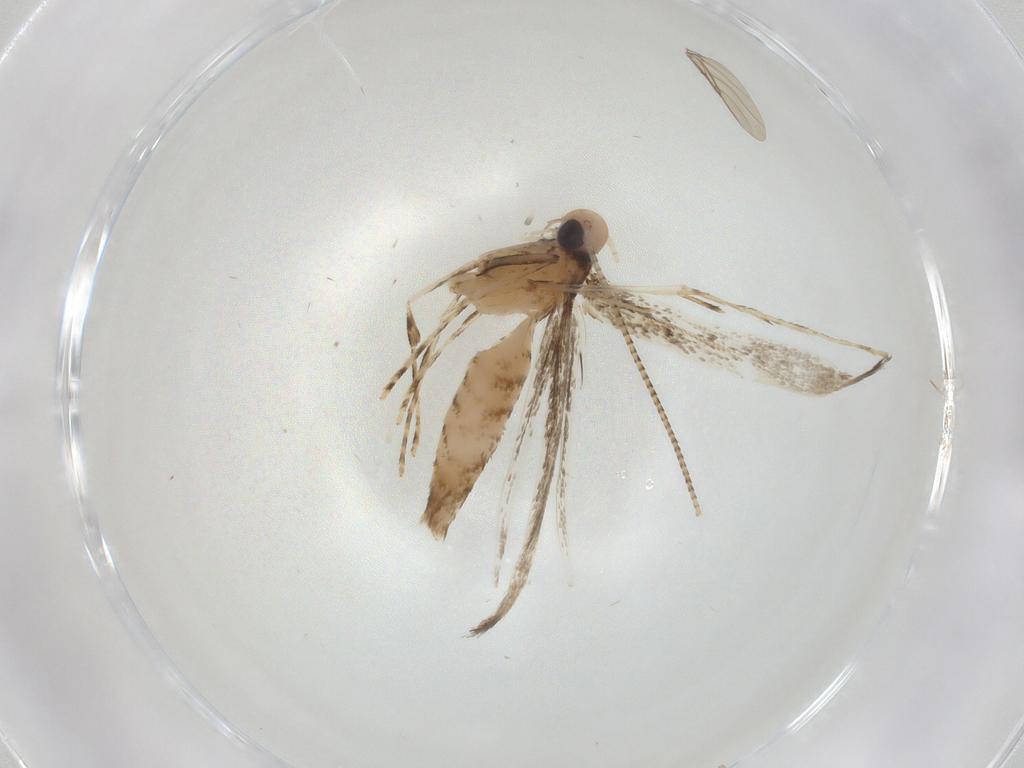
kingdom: Animalia
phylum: Arthropoda
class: Insecta
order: Lepidoptera
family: Gracillariidae
